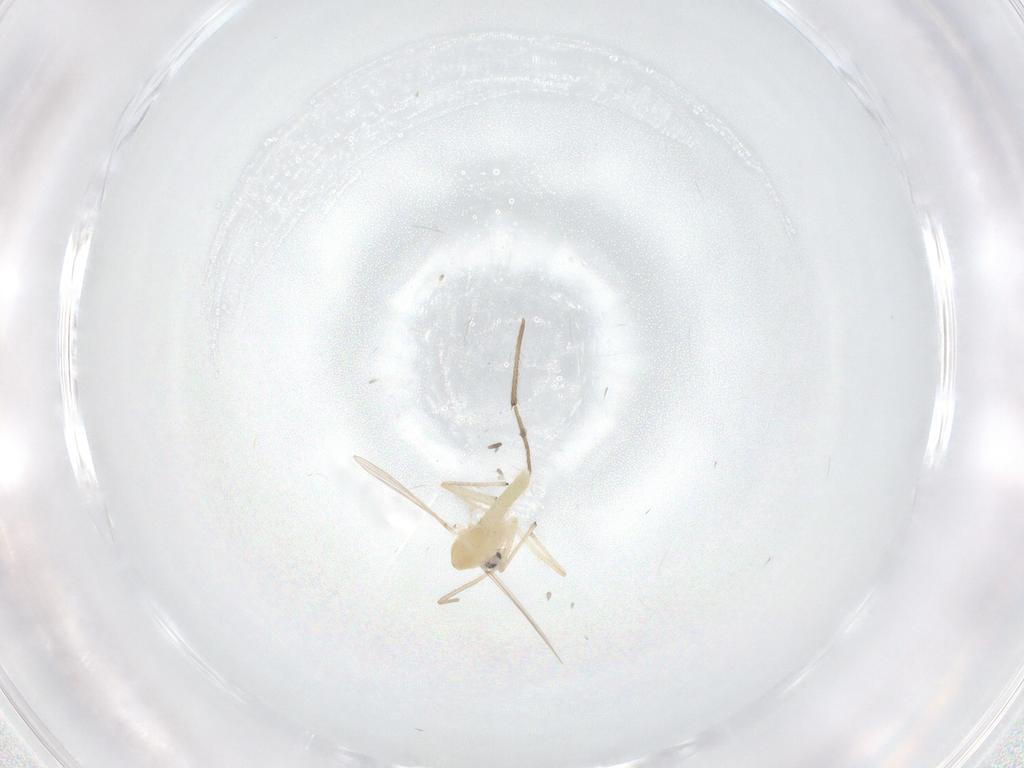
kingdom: Animalia
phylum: Arthropoda
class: Insecta
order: Diptera
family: Chironomidae
